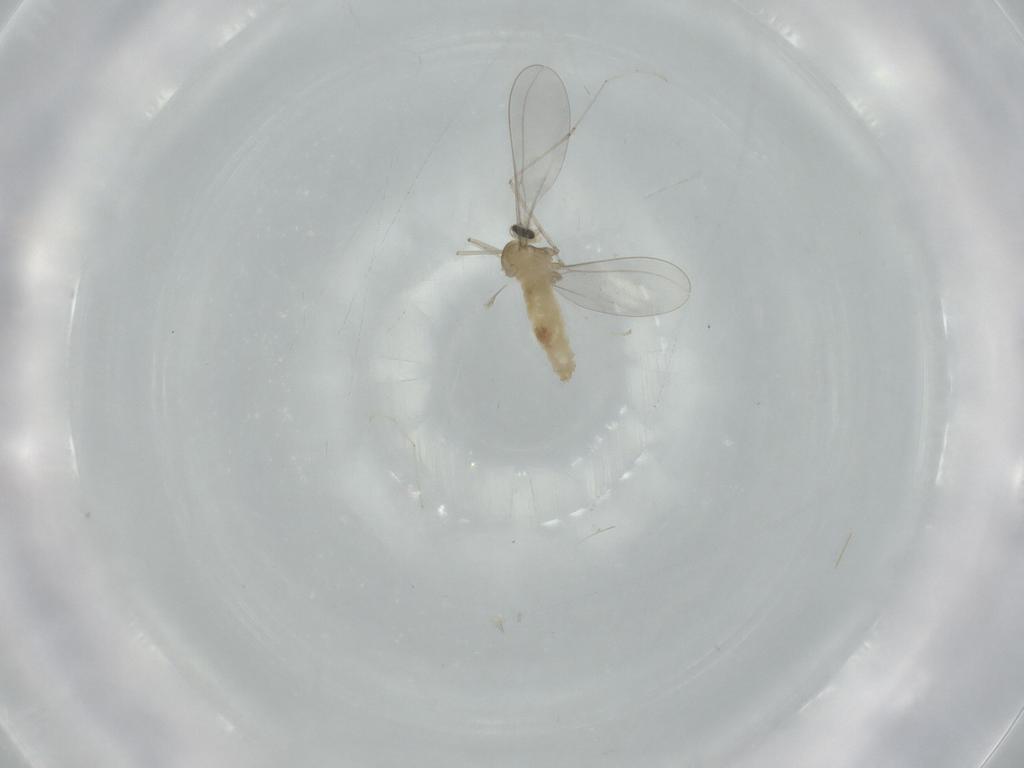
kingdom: Animalia
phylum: Arthropoda
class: Insecta
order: Diptera
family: Cecidomyiidae
